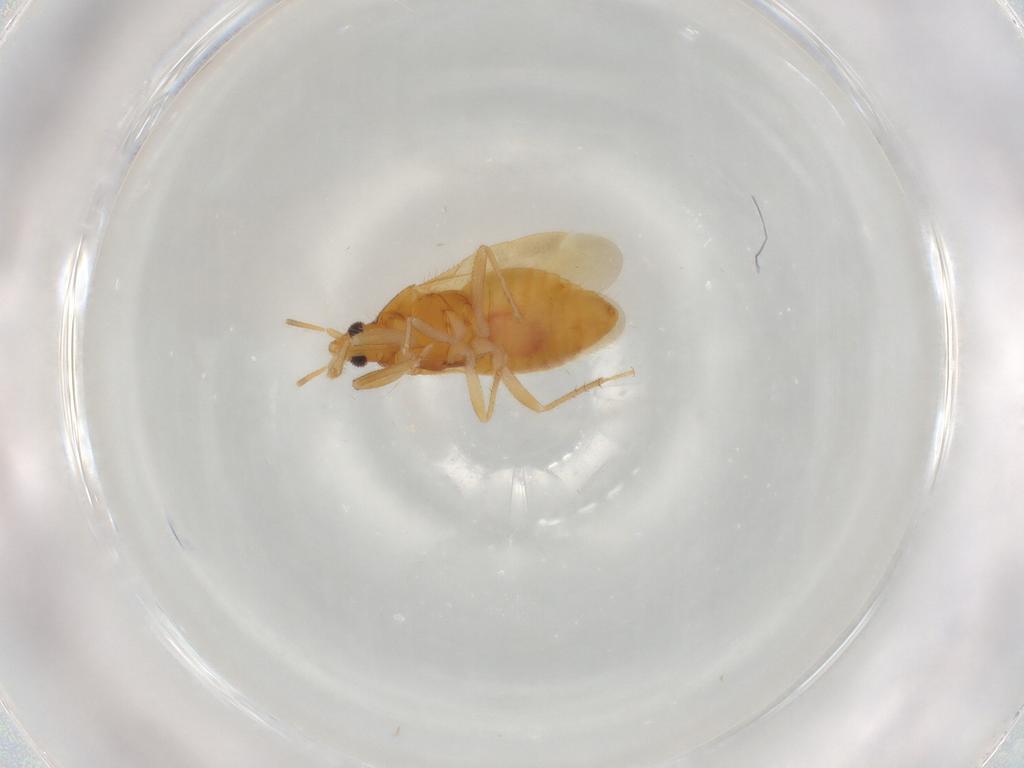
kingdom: Animalia
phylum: Arthropoda
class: Insecta
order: Hemiptera
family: Lasiochilidae
